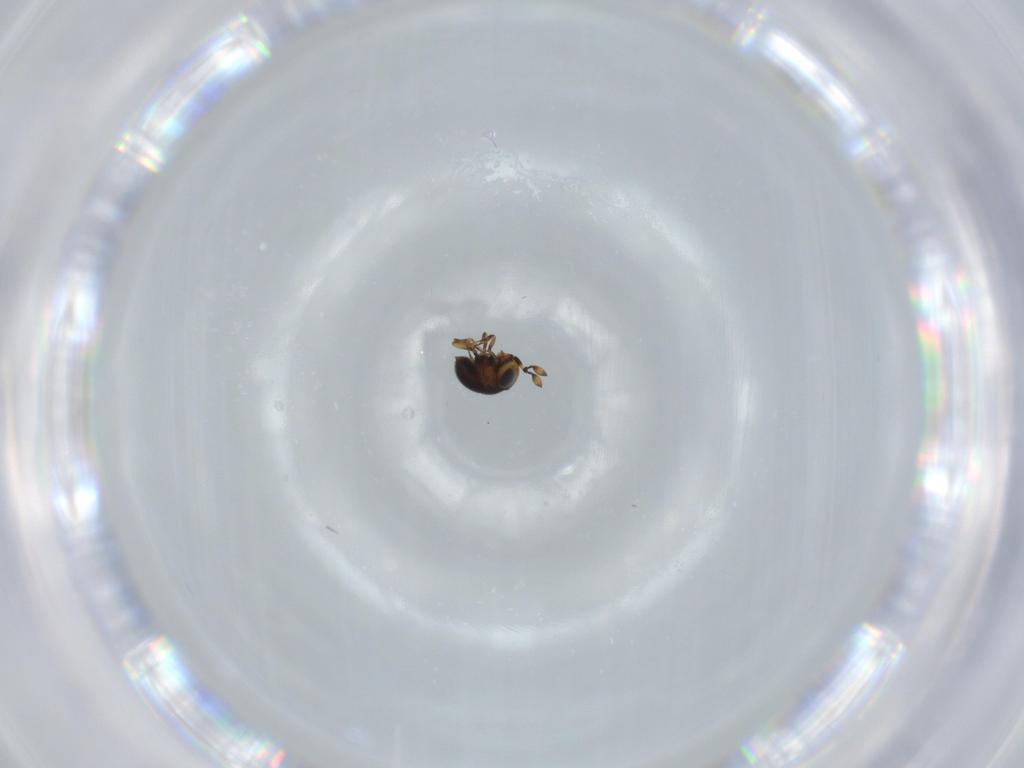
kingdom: Animalia
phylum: Arthropoda
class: Insecta
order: Hymenoptera
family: Scelionidae
